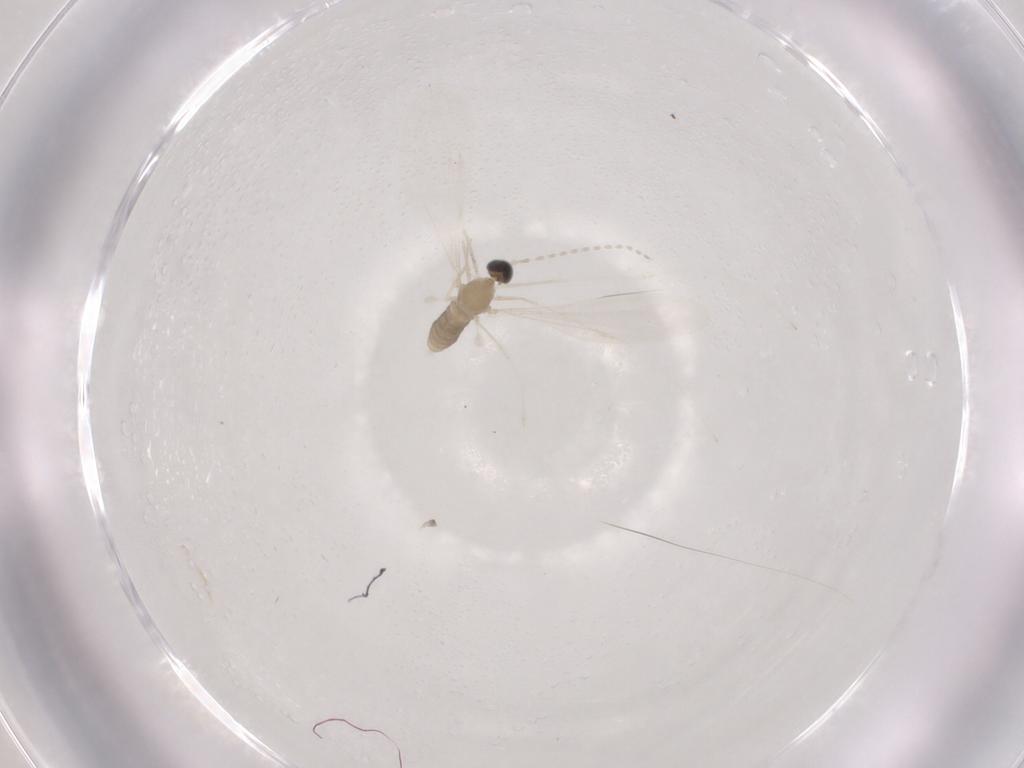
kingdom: Animalia
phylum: Arthropoda
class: Insecta
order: Diptera
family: Cecidomyiidae
